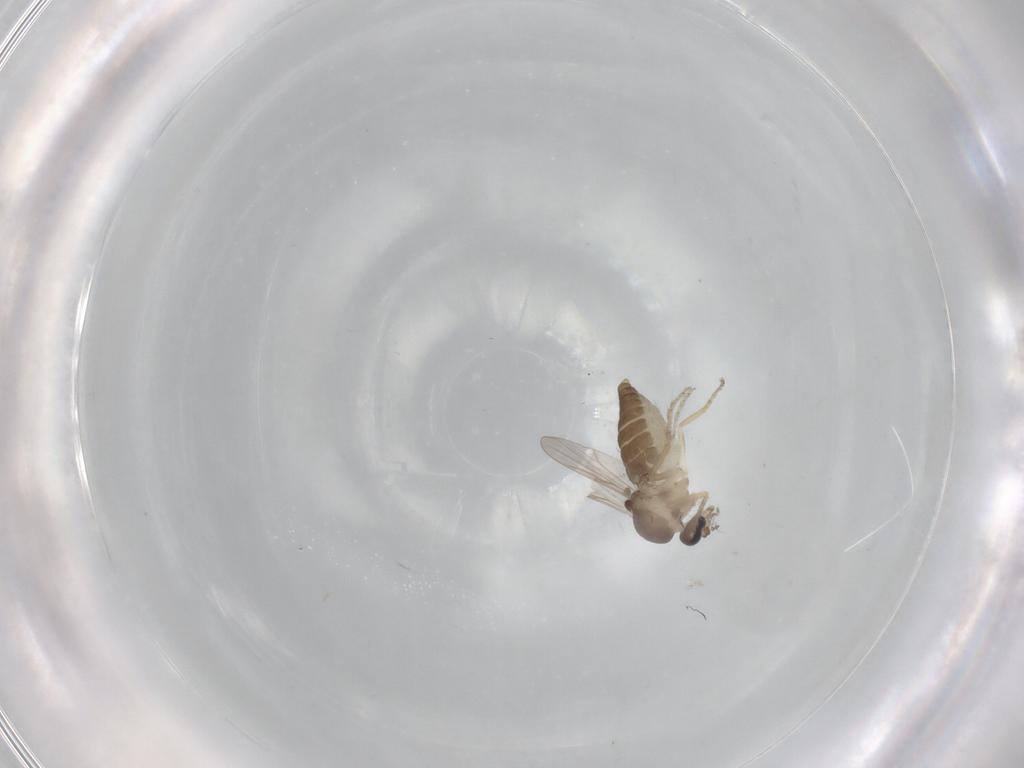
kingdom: Animalia
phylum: Arthropoda
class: Insecta
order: Diptera
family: Ceratopogonidae
